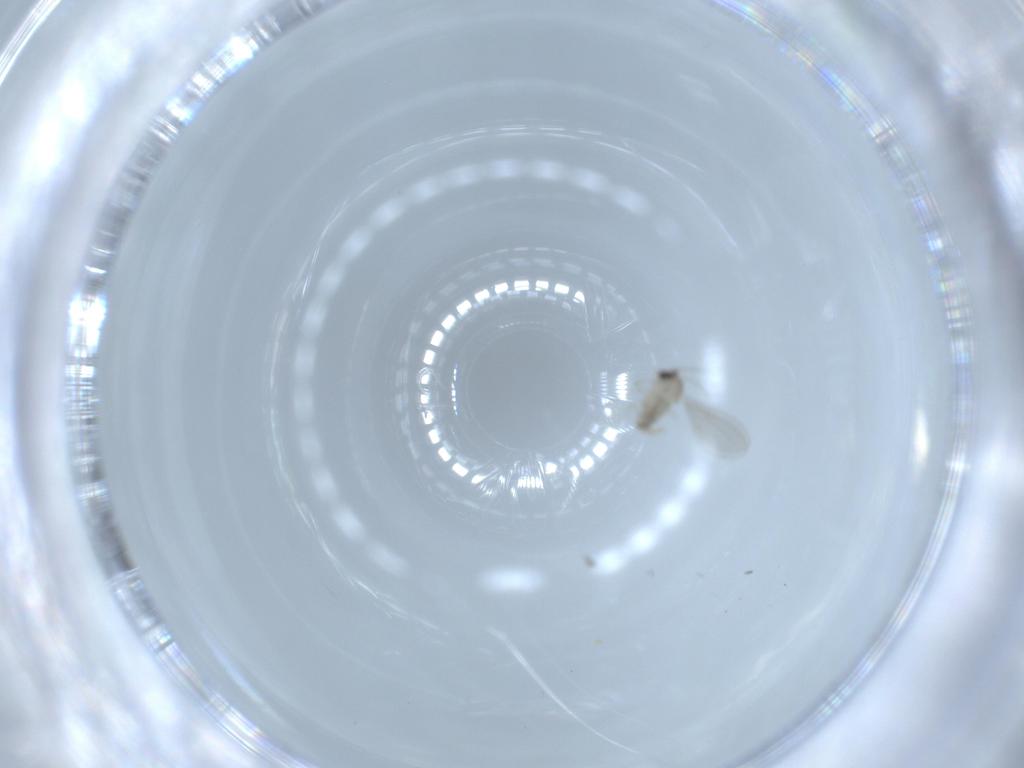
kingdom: Animalia
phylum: Arthropoda
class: Insecta
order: Diptera
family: Cecidomyiidae
